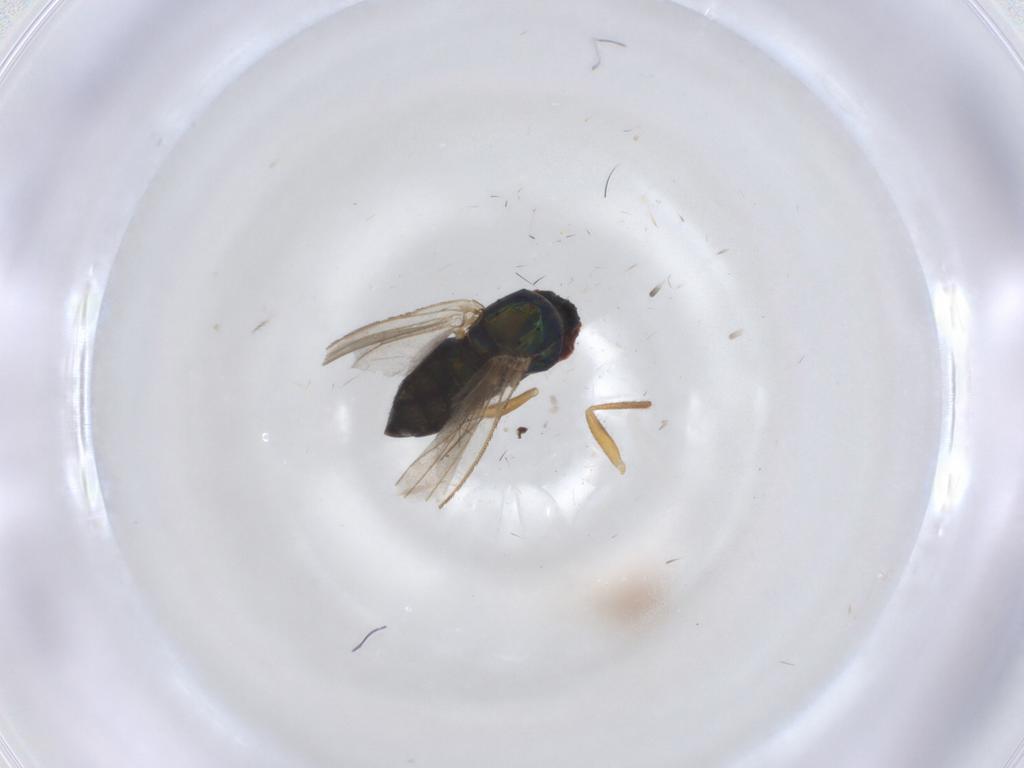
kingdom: Animalia
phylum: Arthropoda
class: Insecta
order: Diptera
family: Dolichopodidae
